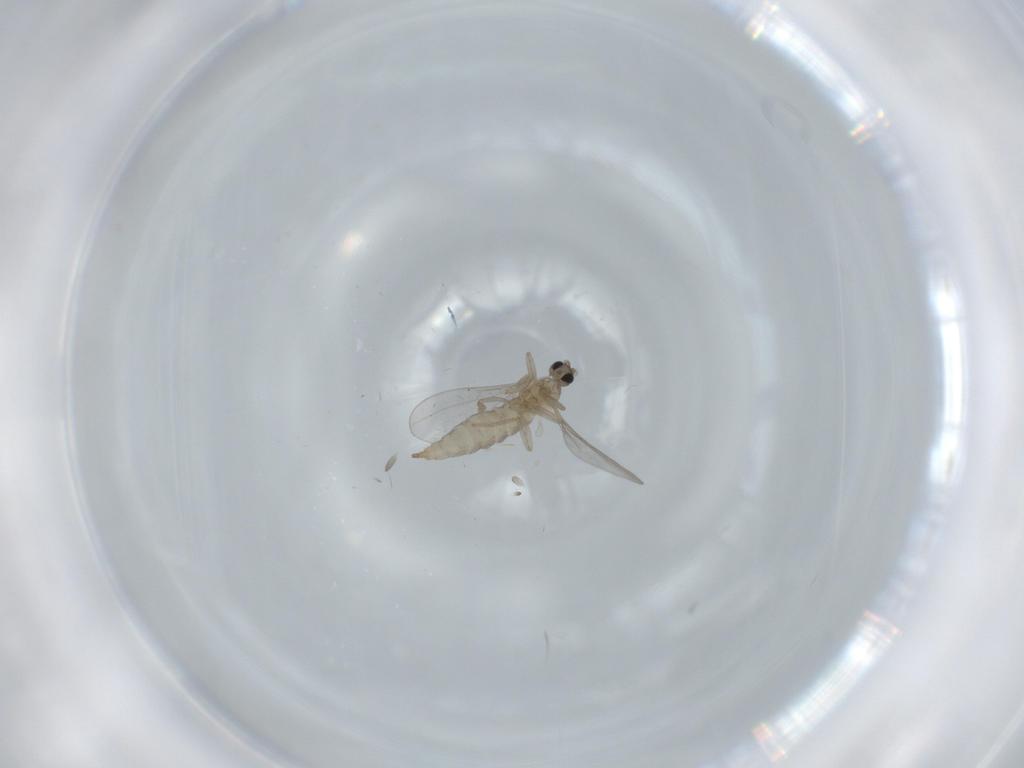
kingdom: Animalia
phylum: Arthropoda
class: Insecta
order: Diptera
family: Cecidomyiidae
